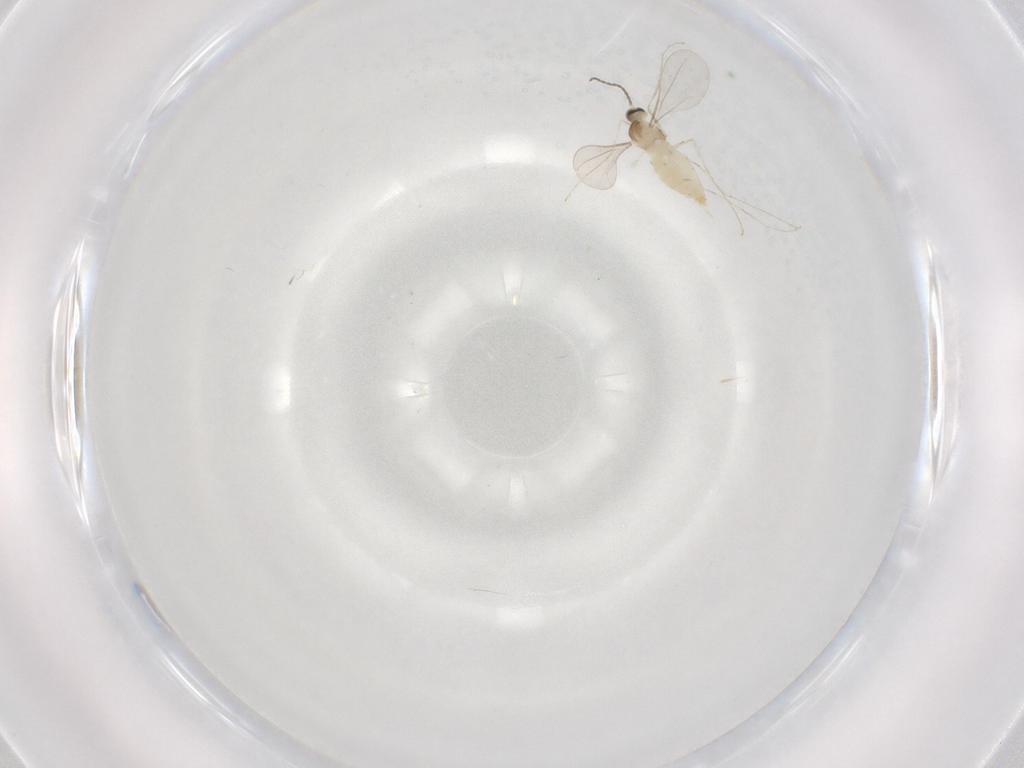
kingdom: Animalia
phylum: Arthropoda
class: Insecta
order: Diptera
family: Cecidomyiidae
